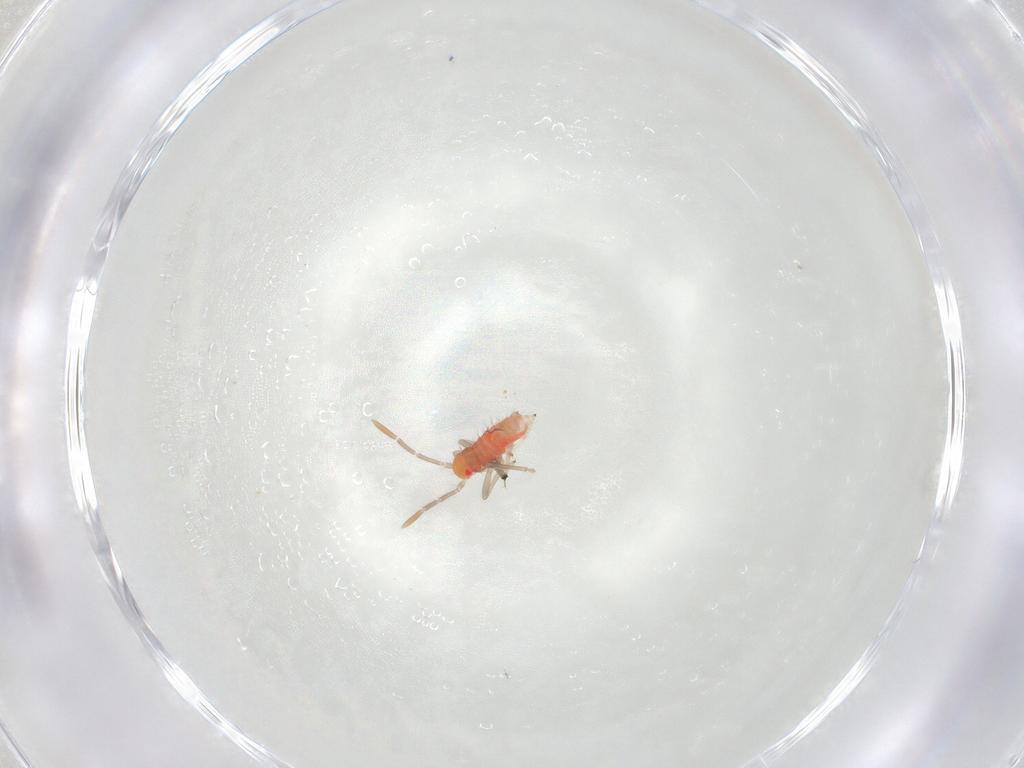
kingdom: Animalia
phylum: Arthropoda
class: Insecta
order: Hemiptera
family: Miridae
